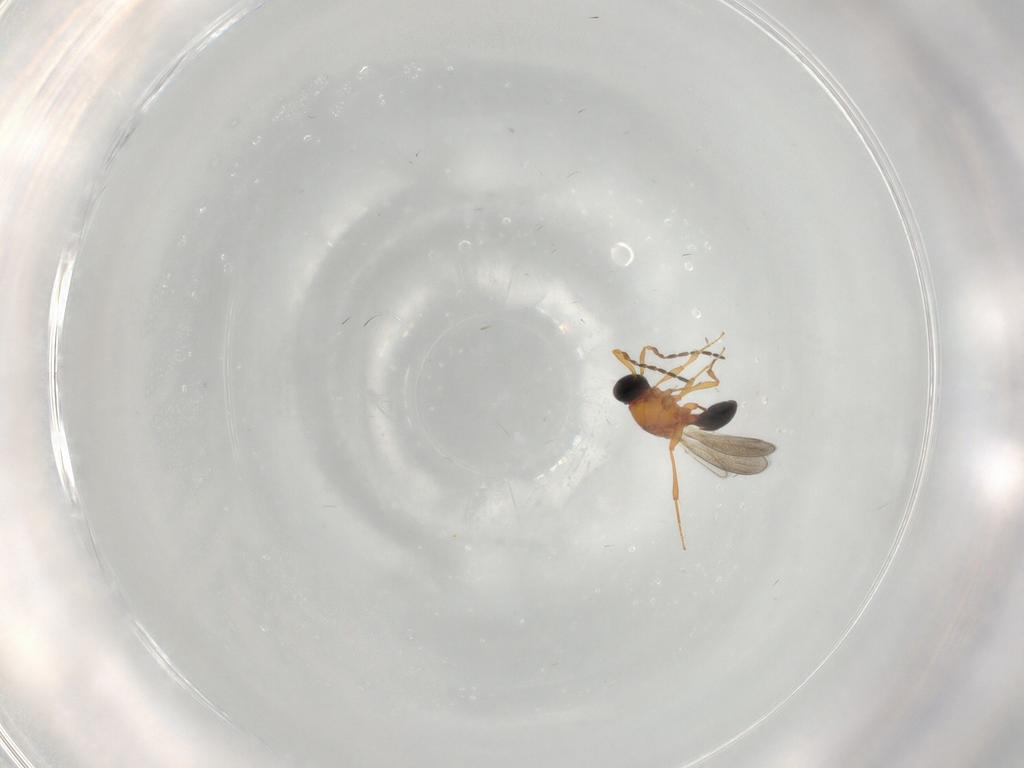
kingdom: Animalia
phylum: Arthropoda
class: Insecta
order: Hymenoptera
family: Platygastridae
